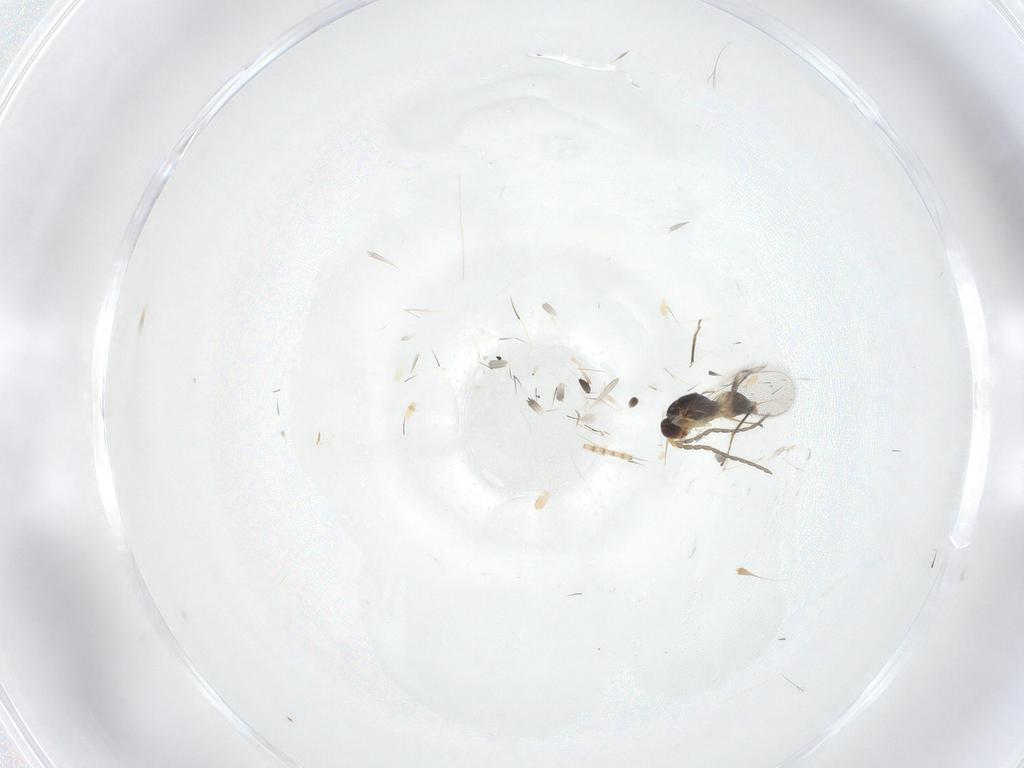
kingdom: Animalia
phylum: Arthropoda
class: Insecta
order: Hymenoptera
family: Mymaridae
